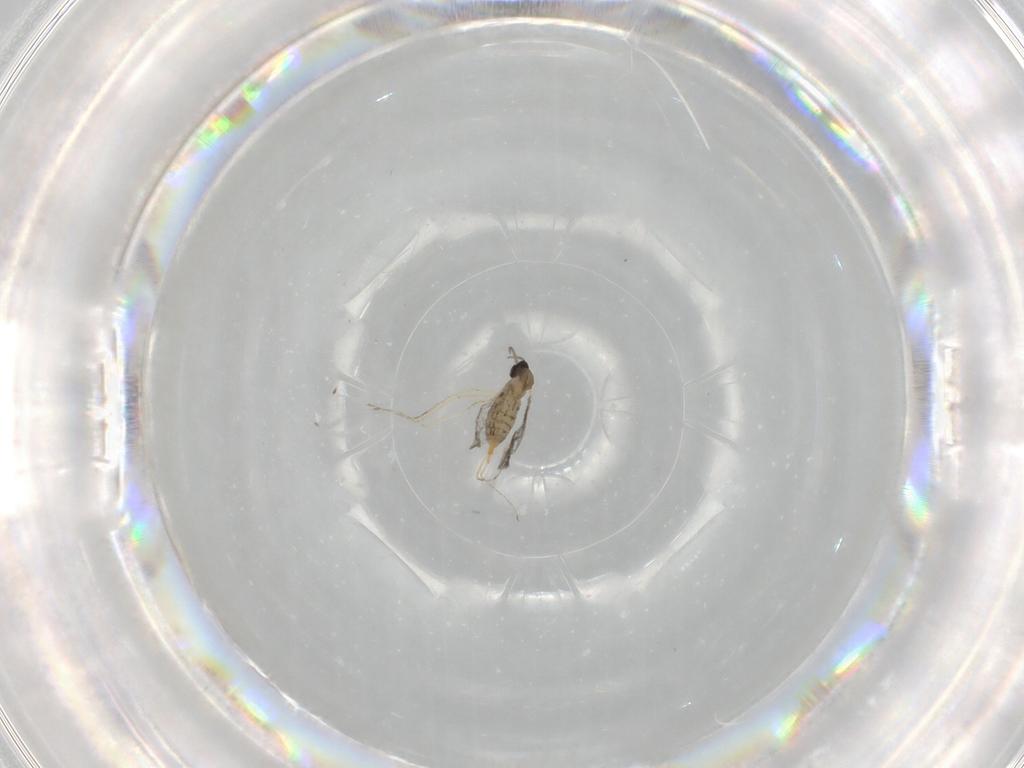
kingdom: Animalia
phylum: Arthropoda
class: Insecta
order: Diptera
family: Cecidomyiidae
